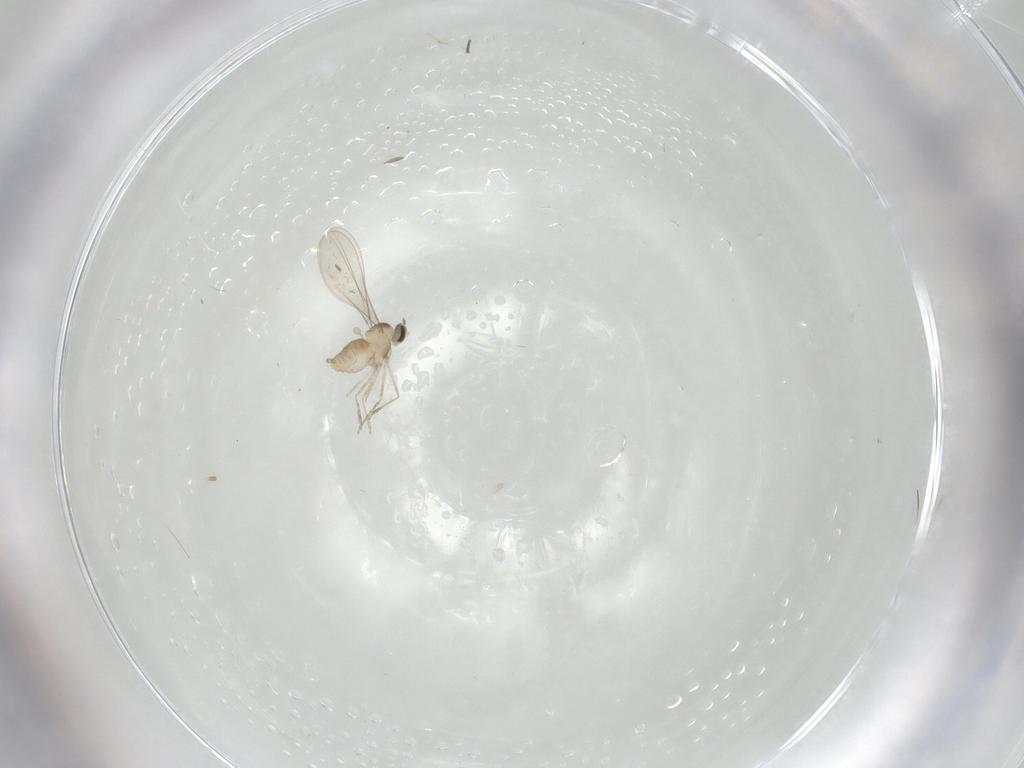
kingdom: Animalia
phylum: Arthropoda
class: Insecta
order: Diptera
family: Cecidomyiidae
